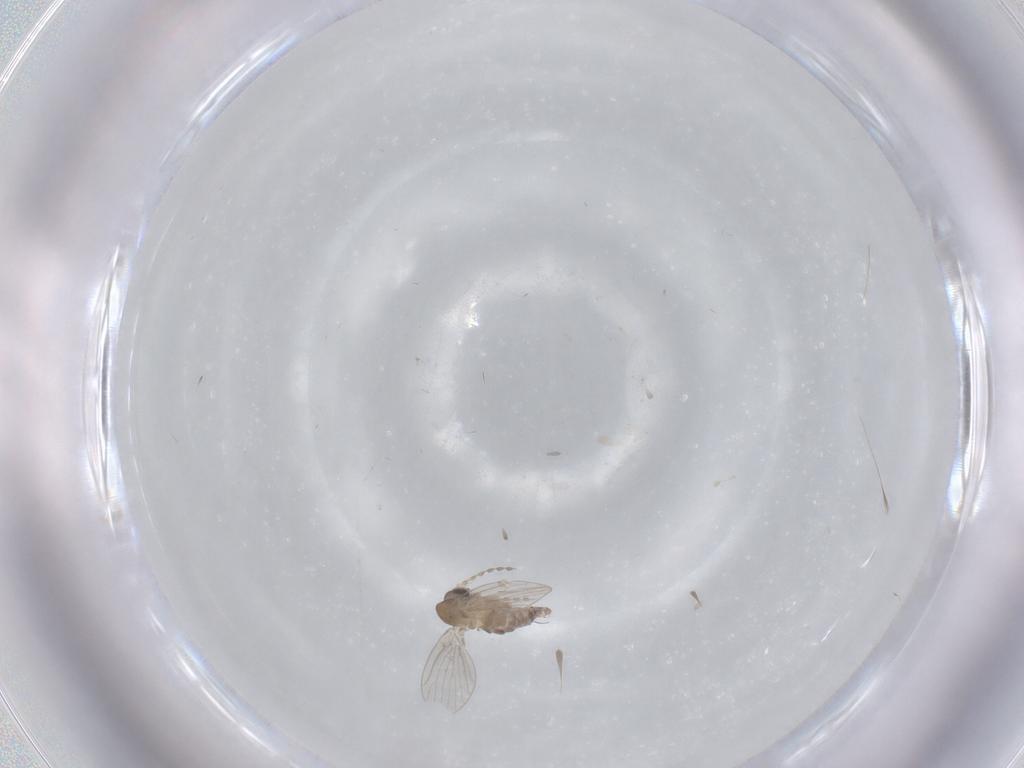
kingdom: Animalia
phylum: Arthropoda
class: Insecta
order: Diptera
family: Psychodidae
